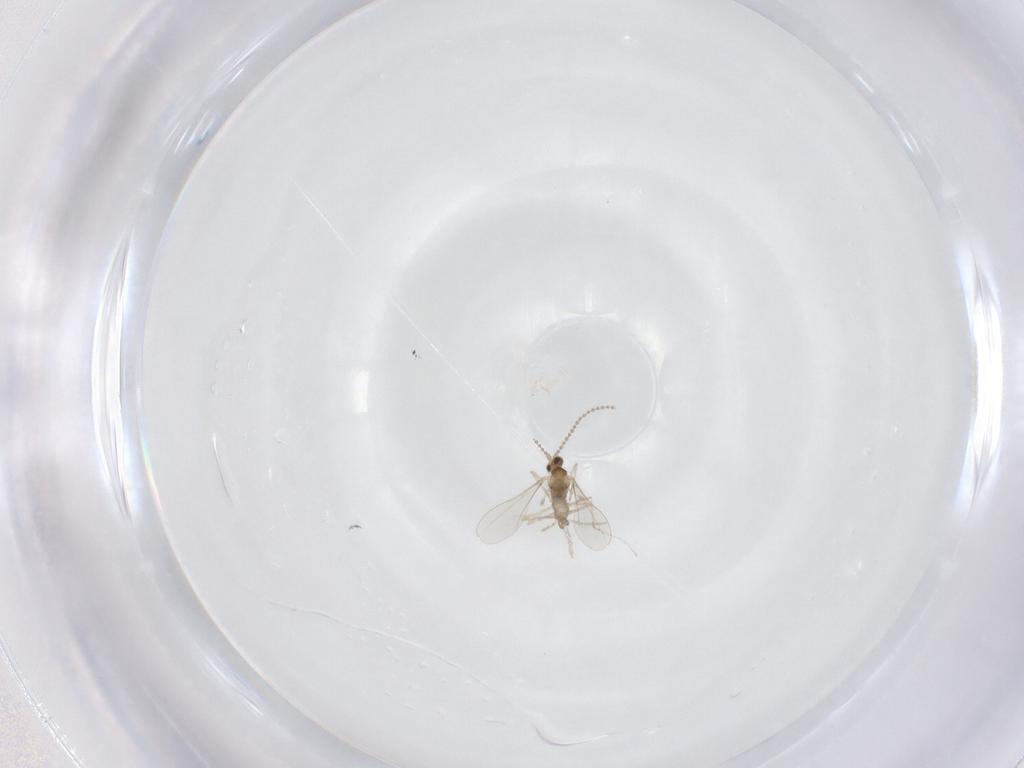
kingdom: Animalia
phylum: Arthropoda
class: Insecta
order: Diptera
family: Cecidomyiidae
